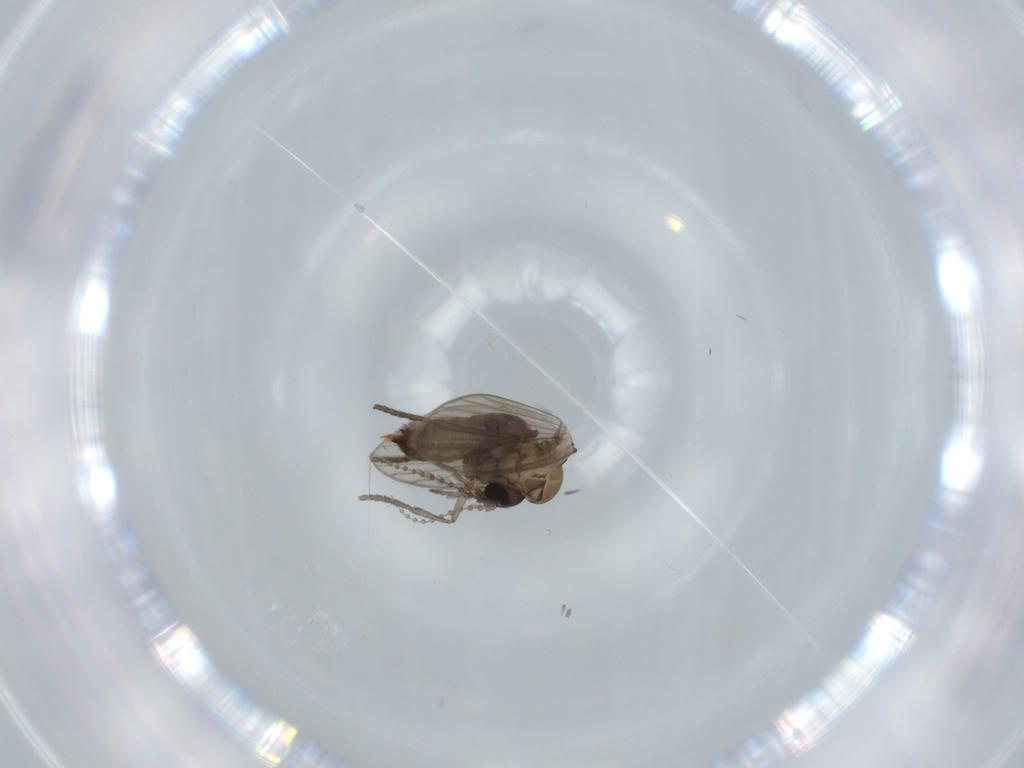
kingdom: Animalia
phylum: Arthropoda
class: Insecta
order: Diptera
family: Psychodidae
